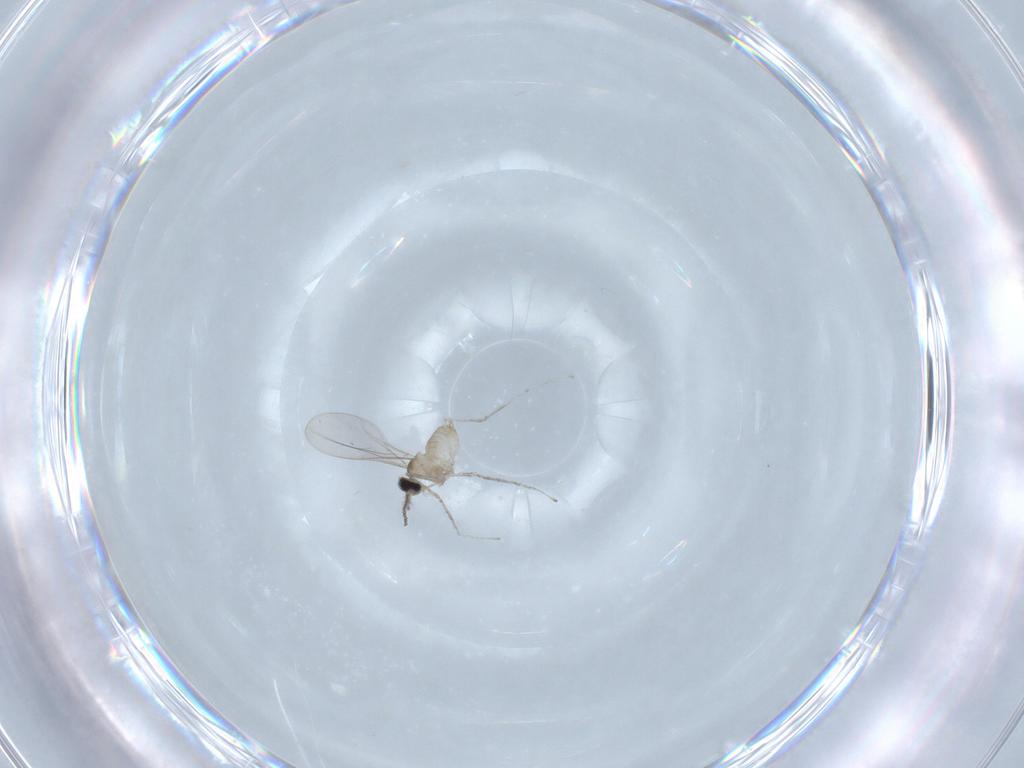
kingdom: Animalia
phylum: Arthropoda
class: Insecta
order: Diptera
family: Cecidomyiidae
